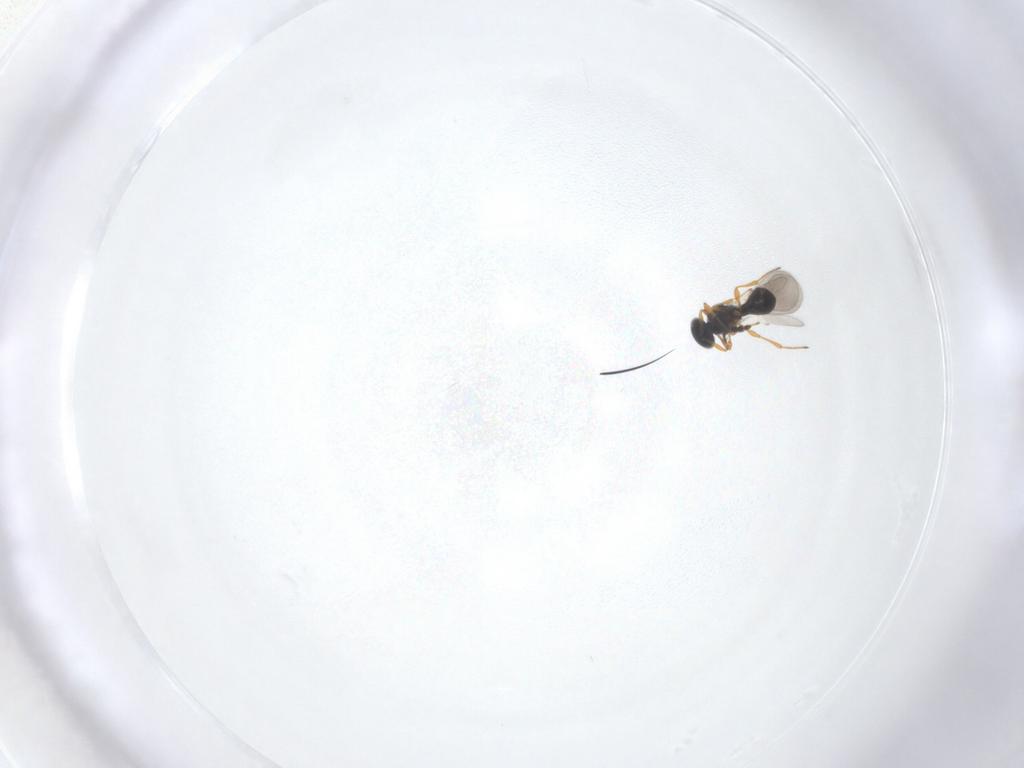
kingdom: Animalia
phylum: Arthropoda
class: Insecta
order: Hymenoptera
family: Platygastridae
